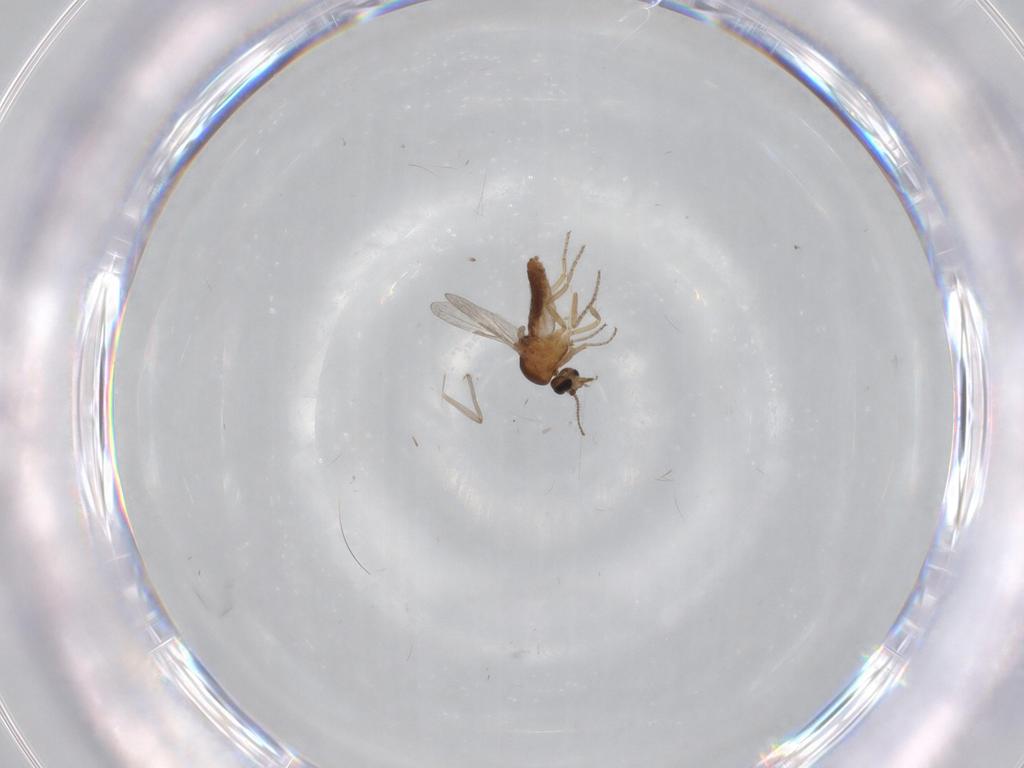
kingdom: Animalia
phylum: Arthropoda
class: Insecta
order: Diptera
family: Ceratopogonidae
